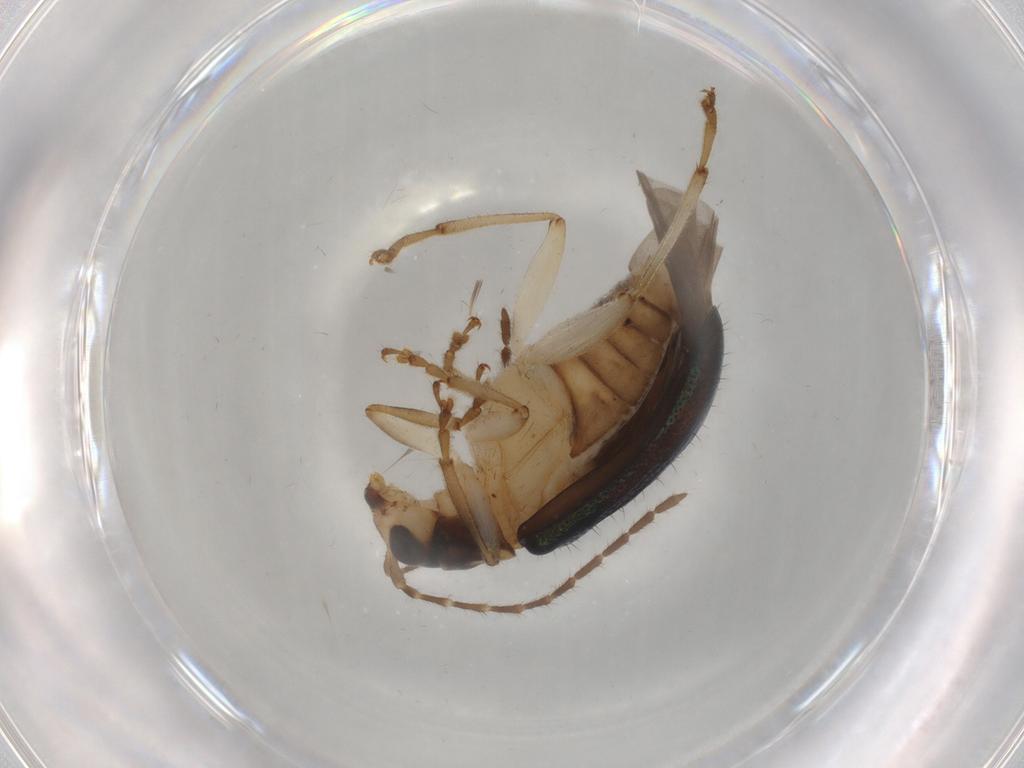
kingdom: Animalia
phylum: Arthropoda
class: Insecta
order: Coleoptera
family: Chrysomelidae
